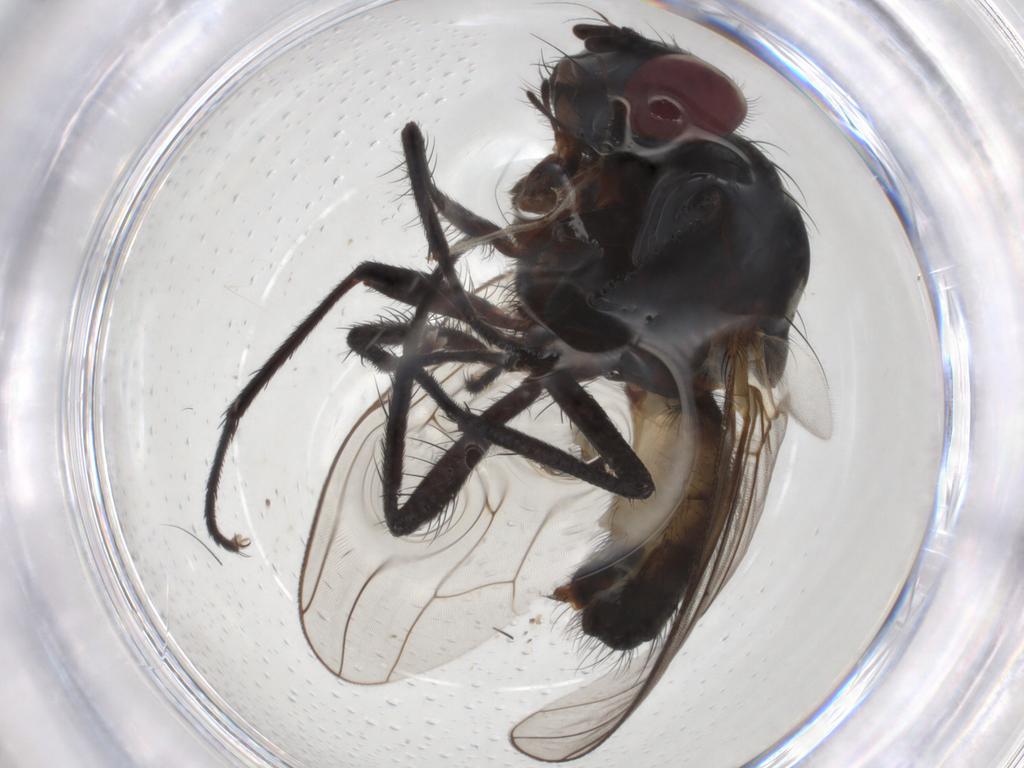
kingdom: Animalia
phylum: Arthropoda
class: Insecta
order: Diptera
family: Anthomyiidae
